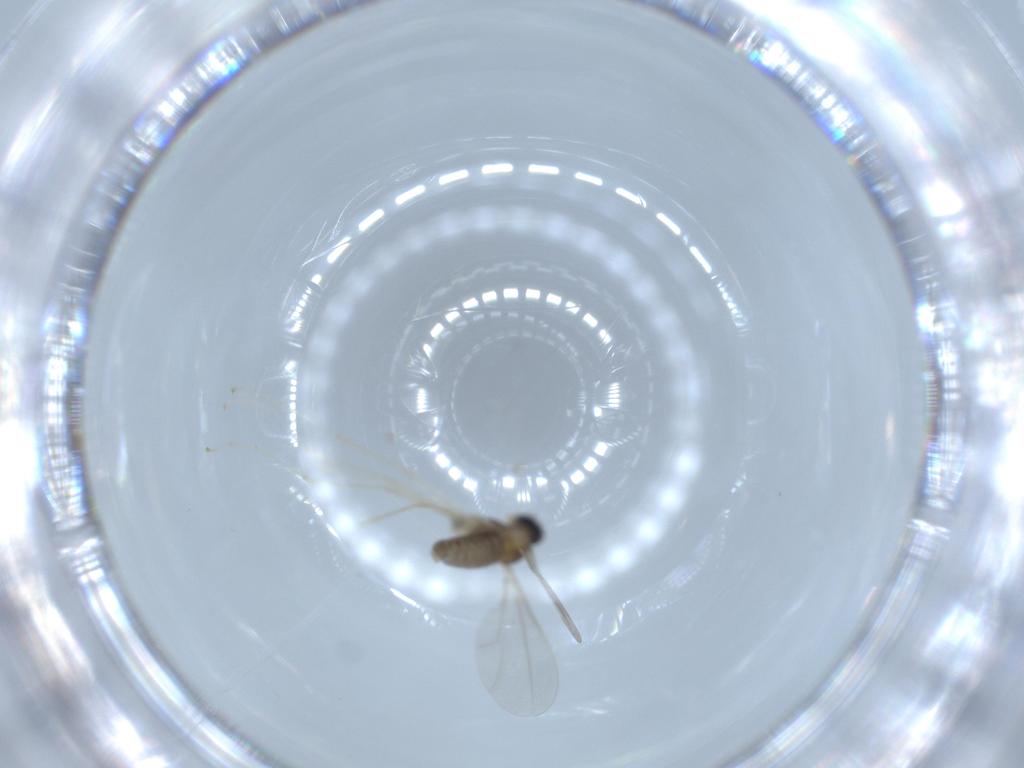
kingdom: Animalia
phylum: Arthropoda
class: Insecta
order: Diptera
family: Cecidomyiidae
